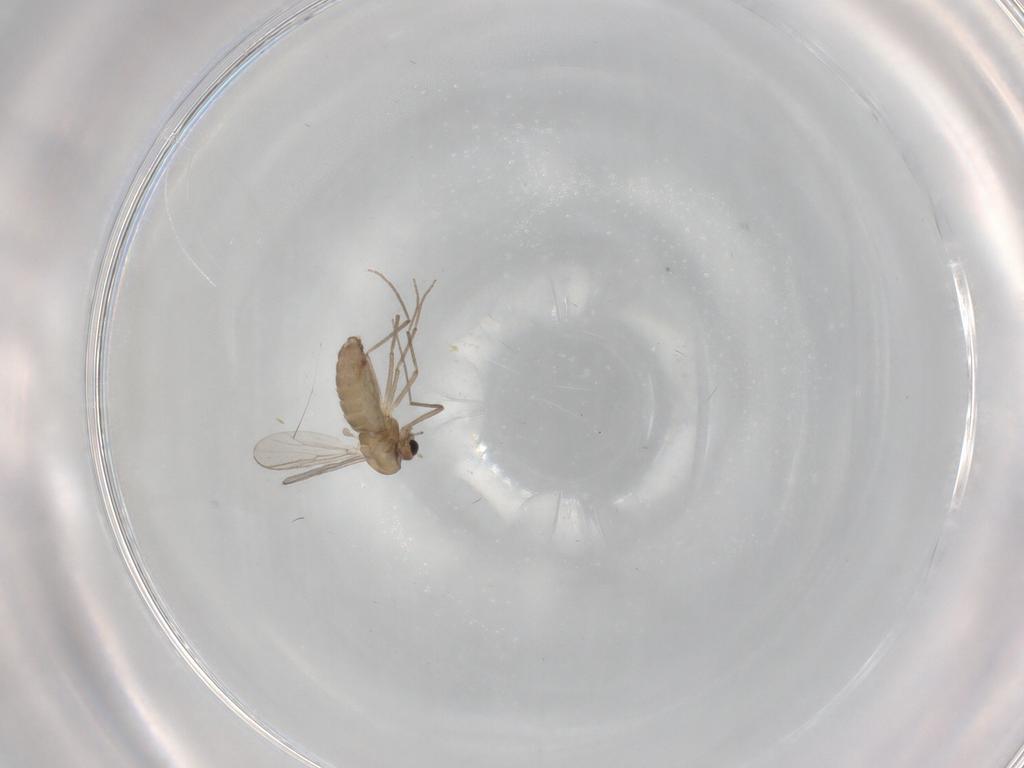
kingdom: Animalia
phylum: Arthropoda
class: Insecta
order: Diptera
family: Chironomidae
